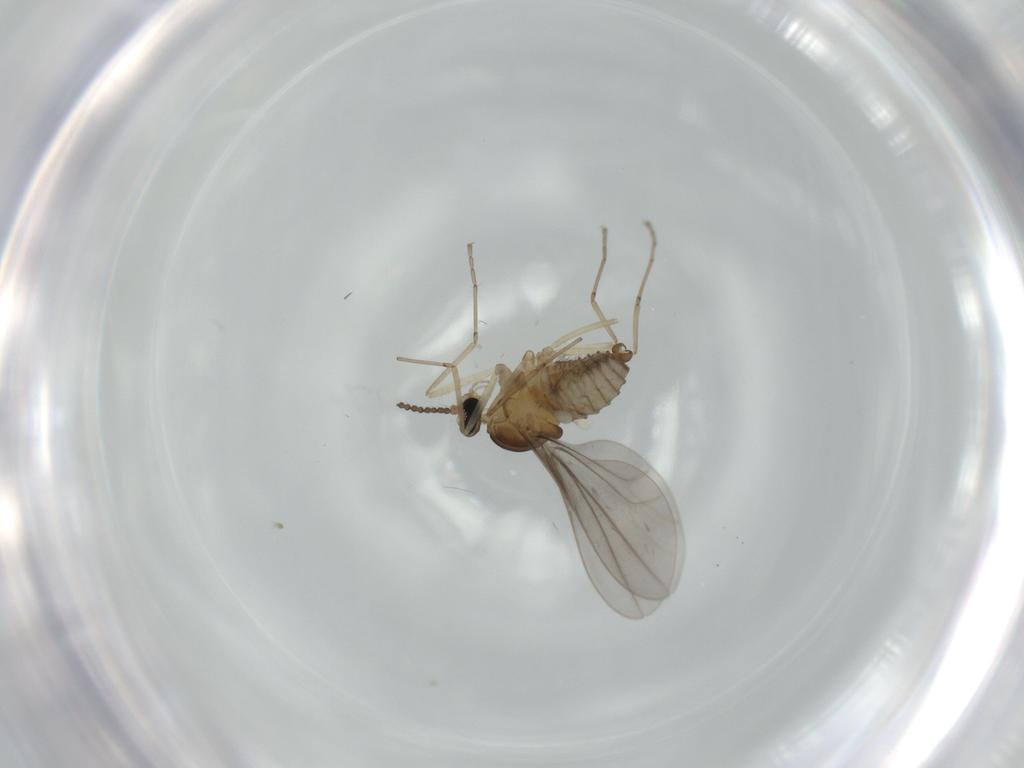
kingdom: Animalia
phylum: Arthropoda
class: Insecta
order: Diptera
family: Cecidomyiidae
